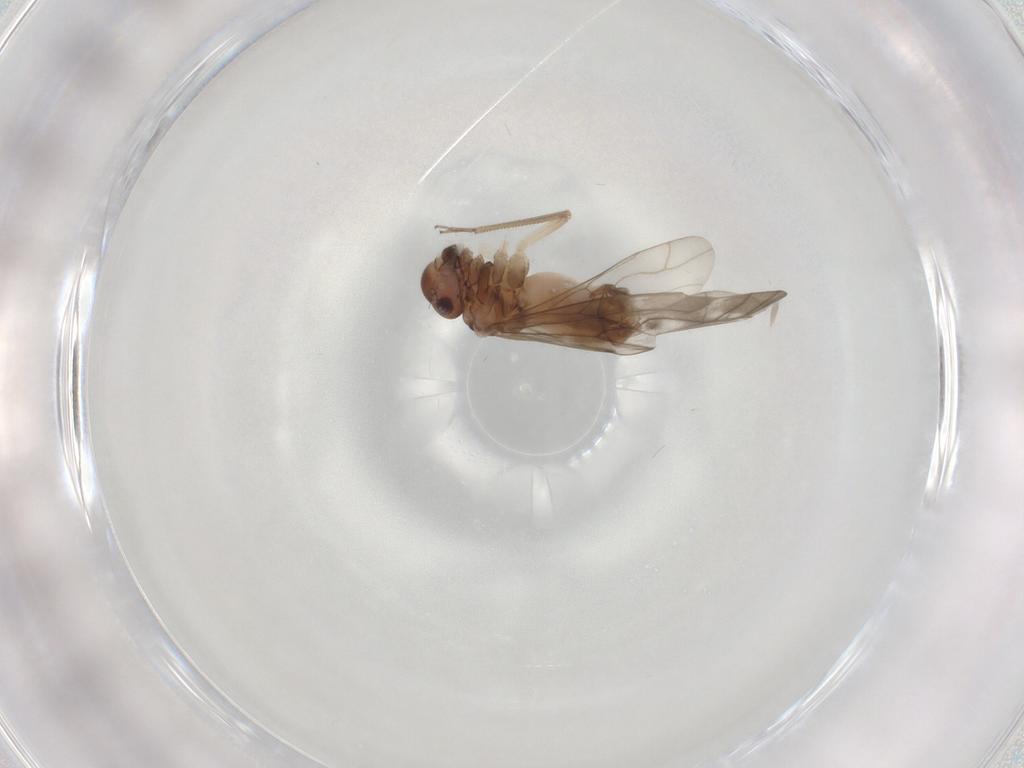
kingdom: Animalia
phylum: Arthropoda
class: Insecta
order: Psocodea
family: Peripsocidae
